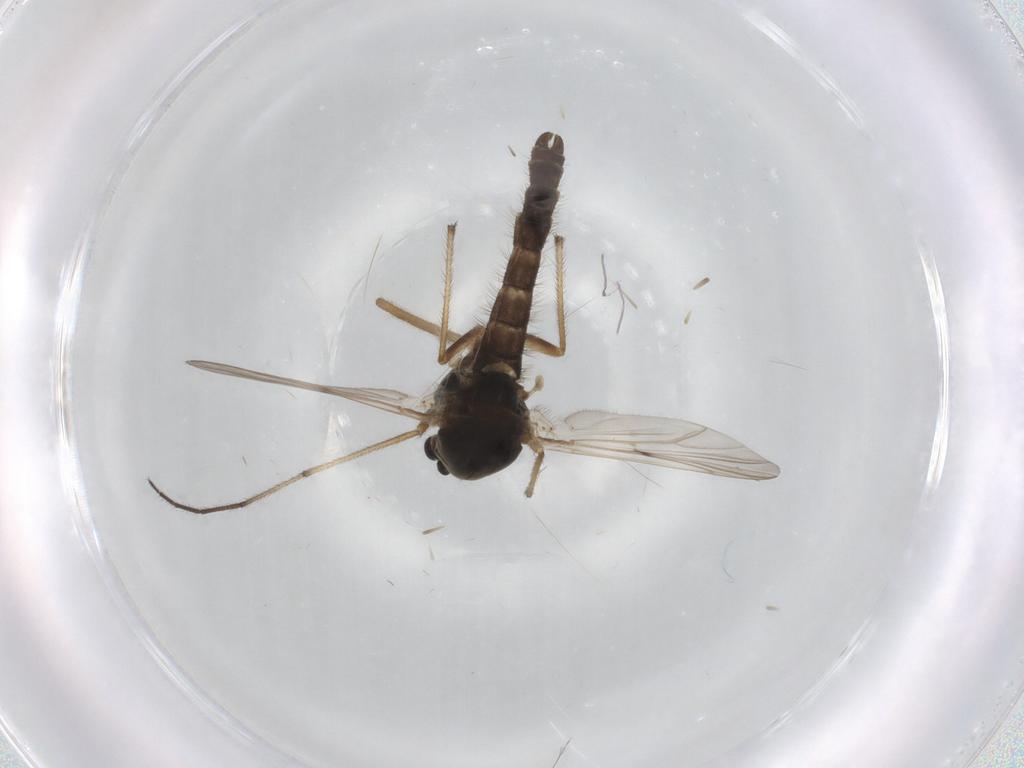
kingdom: Animalia
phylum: Arthropoda
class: Insecta
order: Diptera
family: Chironomidae
